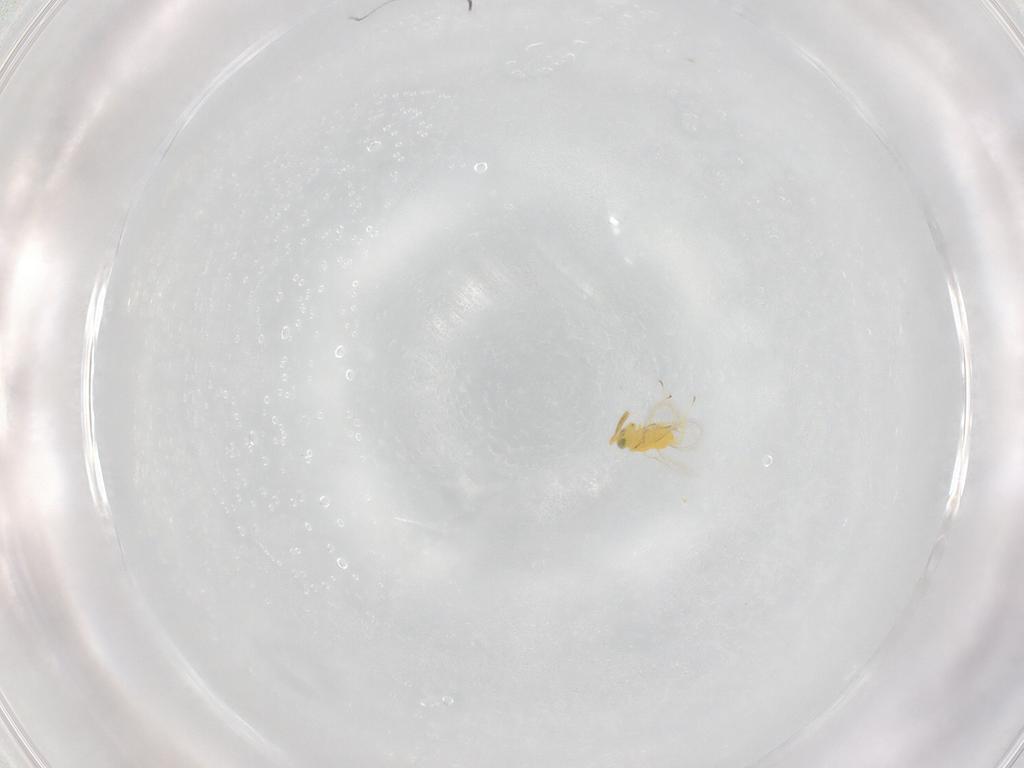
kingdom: Animalia
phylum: Arthropoda
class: Insecta
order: Hymenoptera
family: Aphelinidae
